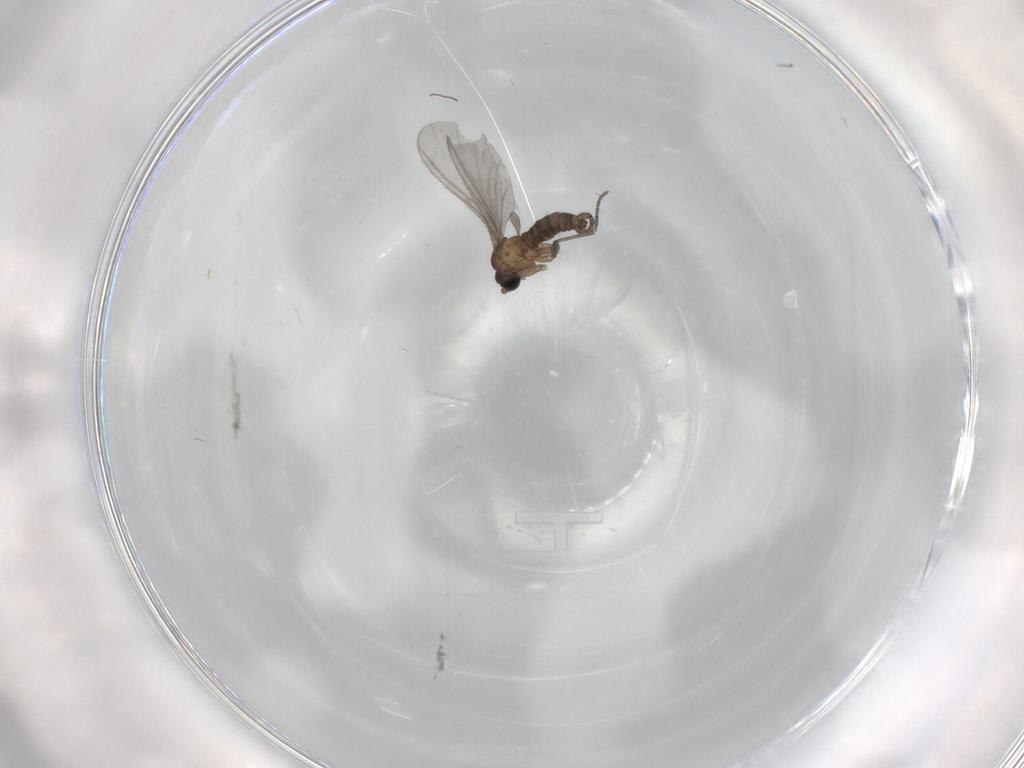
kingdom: Animalia
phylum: Arthropoda
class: Insecta
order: Diptera
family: Sciaridae
